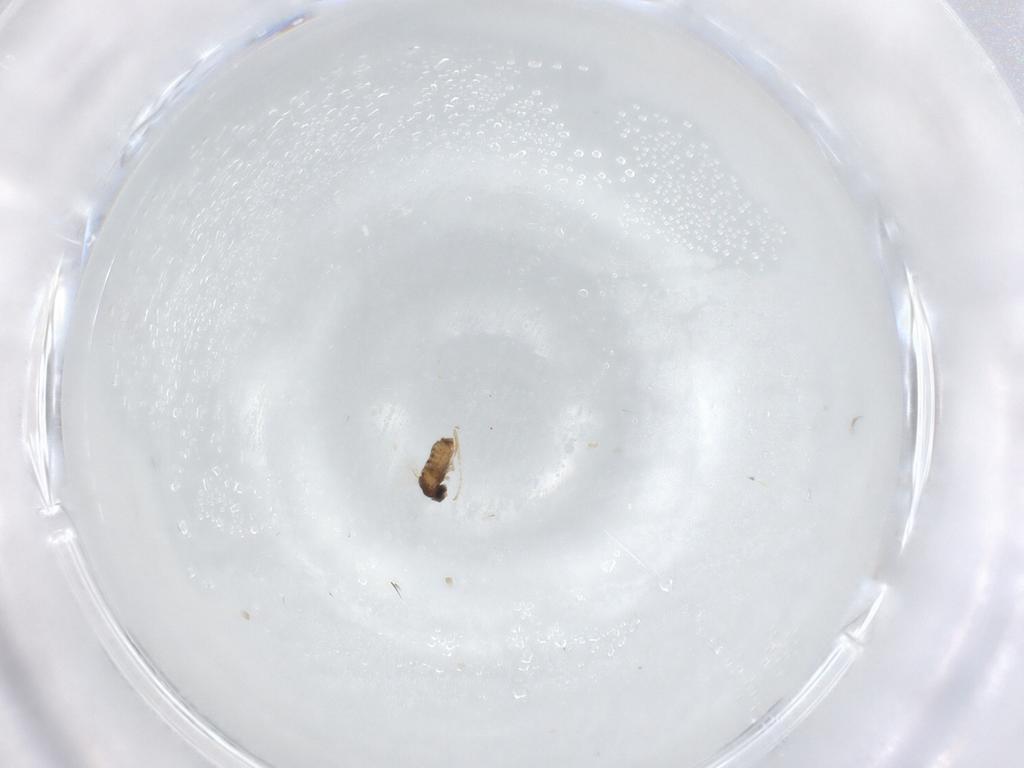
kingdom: Animalia
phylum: Arthropoda
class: Insecta
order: Diptera
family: Cecidomyiidae
